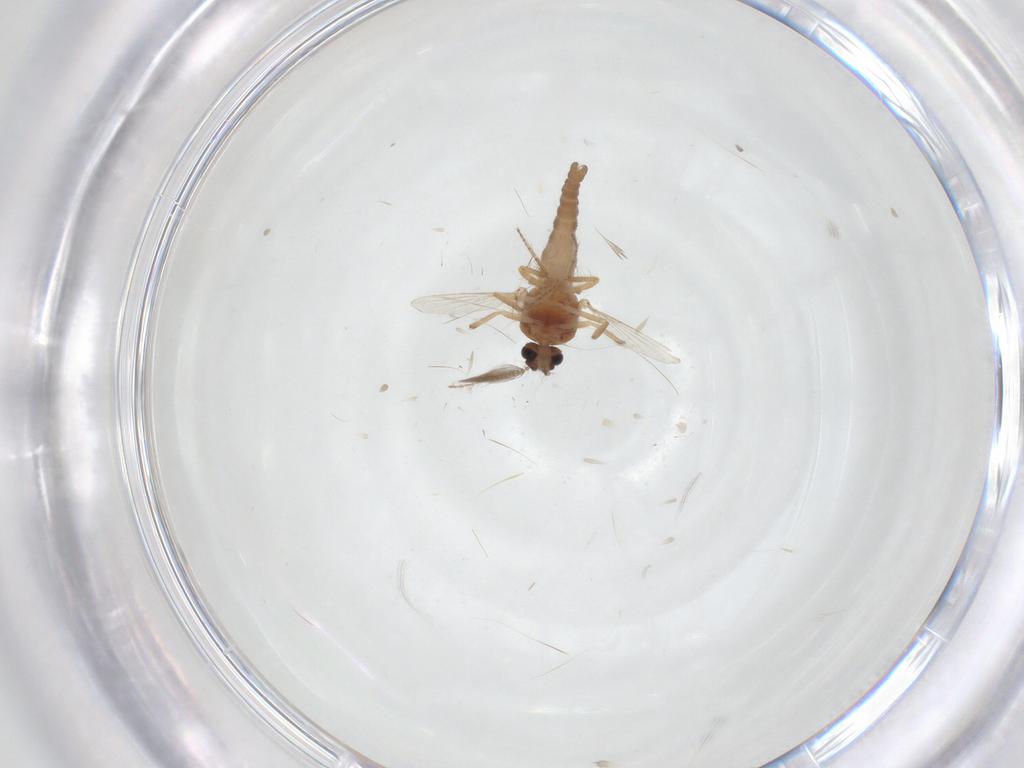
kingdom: Animalia
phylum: Arthropoda
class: Insecta
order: Diptera
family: Ceratopogonidae
